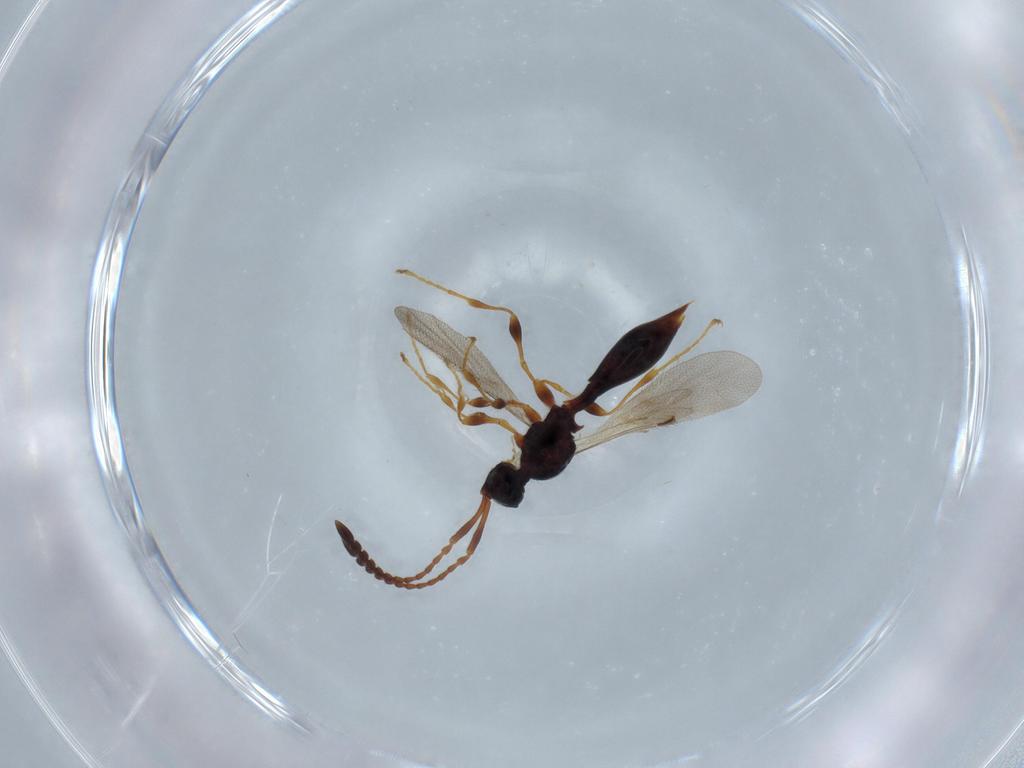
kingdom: Animalia
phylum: Arthropoda
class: Insecta
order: Hymenoptera
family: Diapriidae
